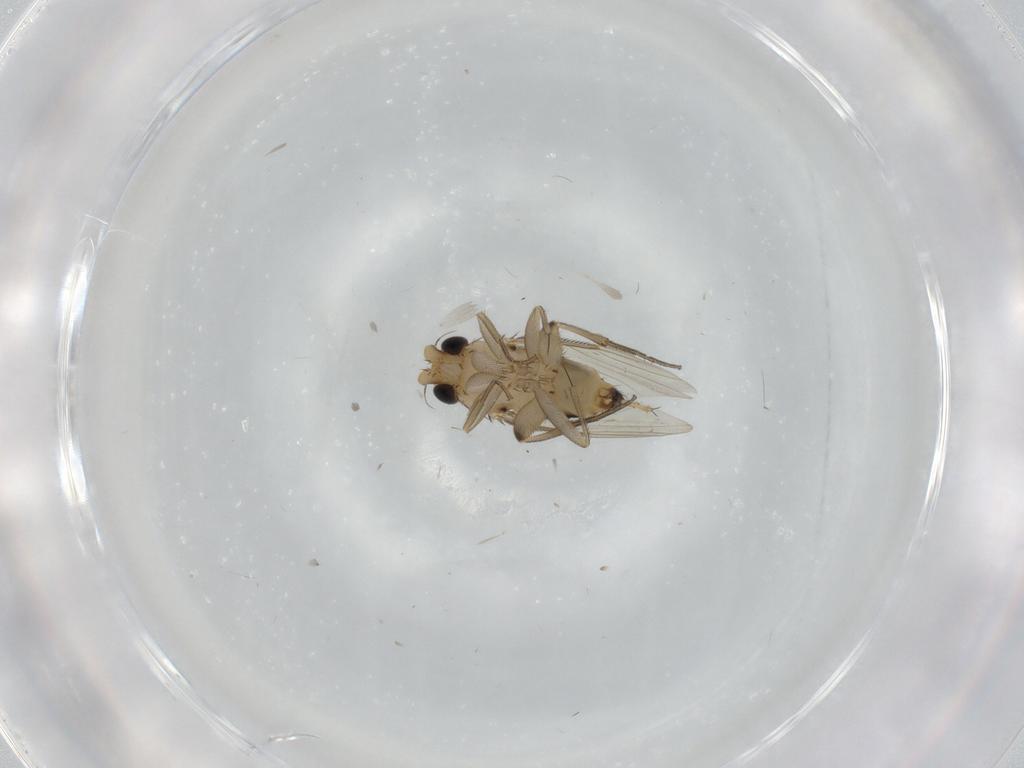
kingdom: Animalia
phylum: Arthropoda
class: Insecta
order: Diptera
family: Phoridae
